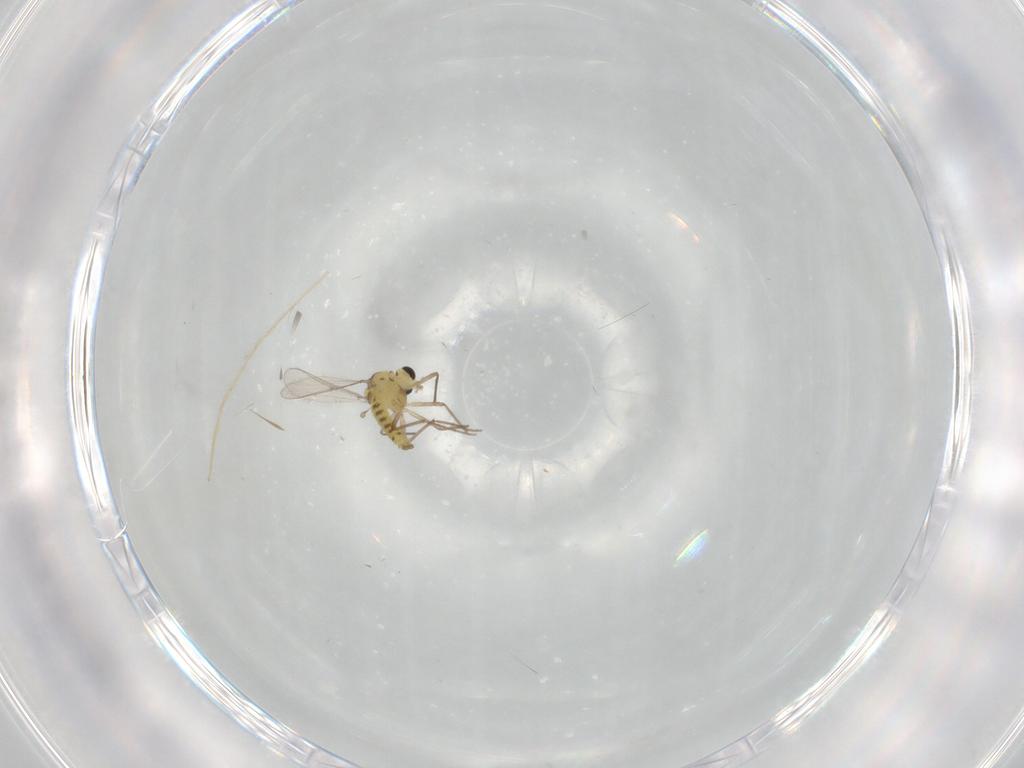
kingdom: Animalia
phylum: Arthropoda
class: Insecta
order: Diptera
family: Chironomidae
